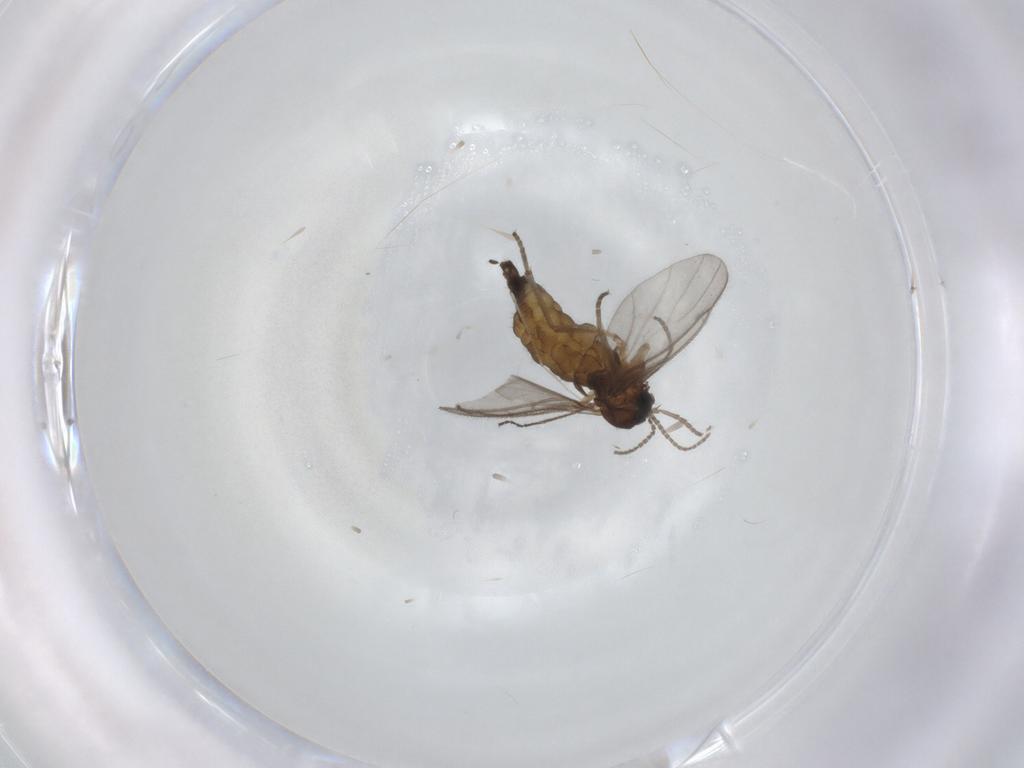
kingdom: Animalia
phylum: Arthropoda
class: Insecta
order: Diptera
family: Cecidomyiidae
